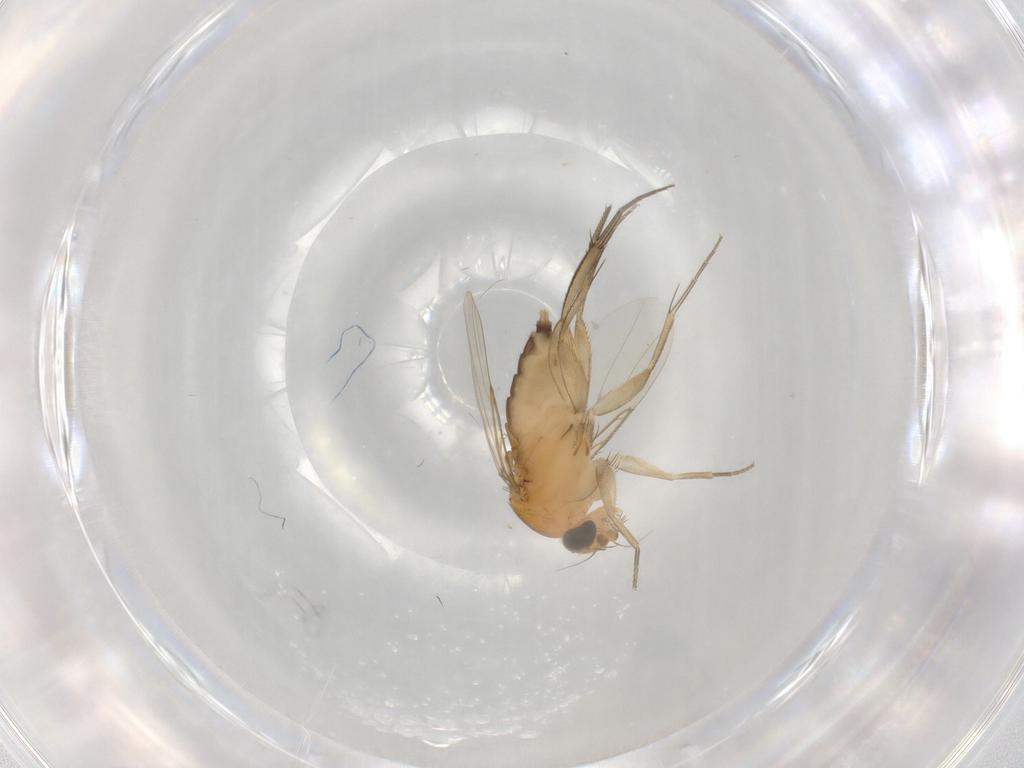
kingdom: Animalia
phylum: Arthropoda
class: Insecta
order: Diptera
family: Phoridae
